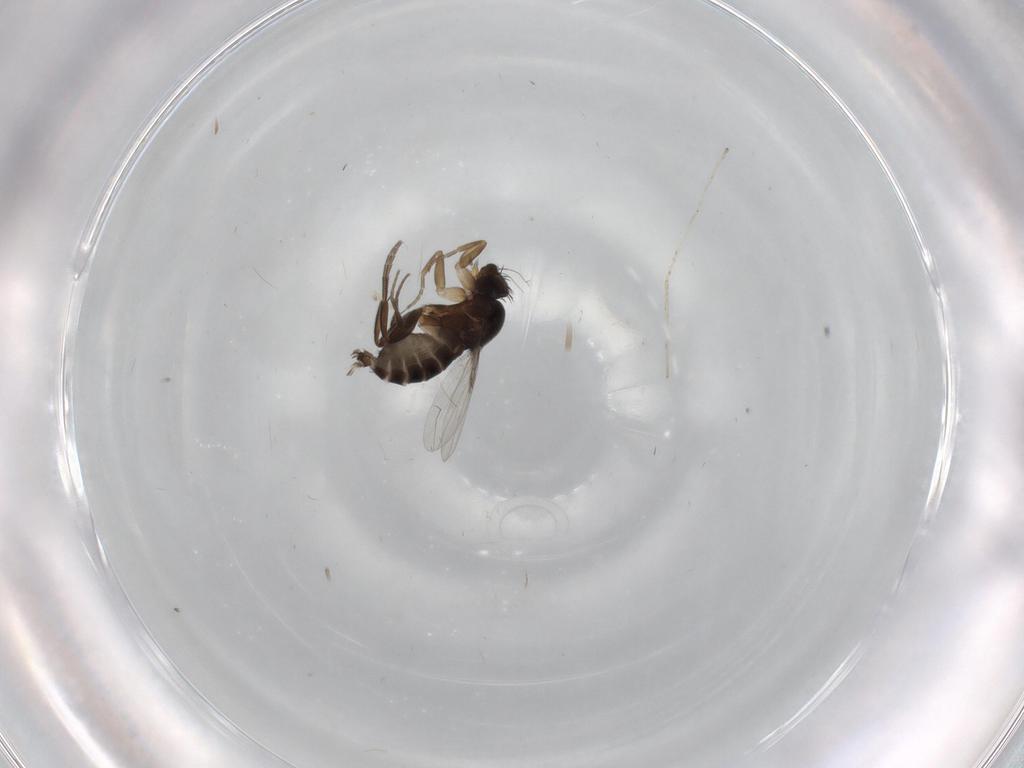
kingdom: Animalia
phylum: Arthropoda
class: Insecta
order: Diptera
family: Phoridae
